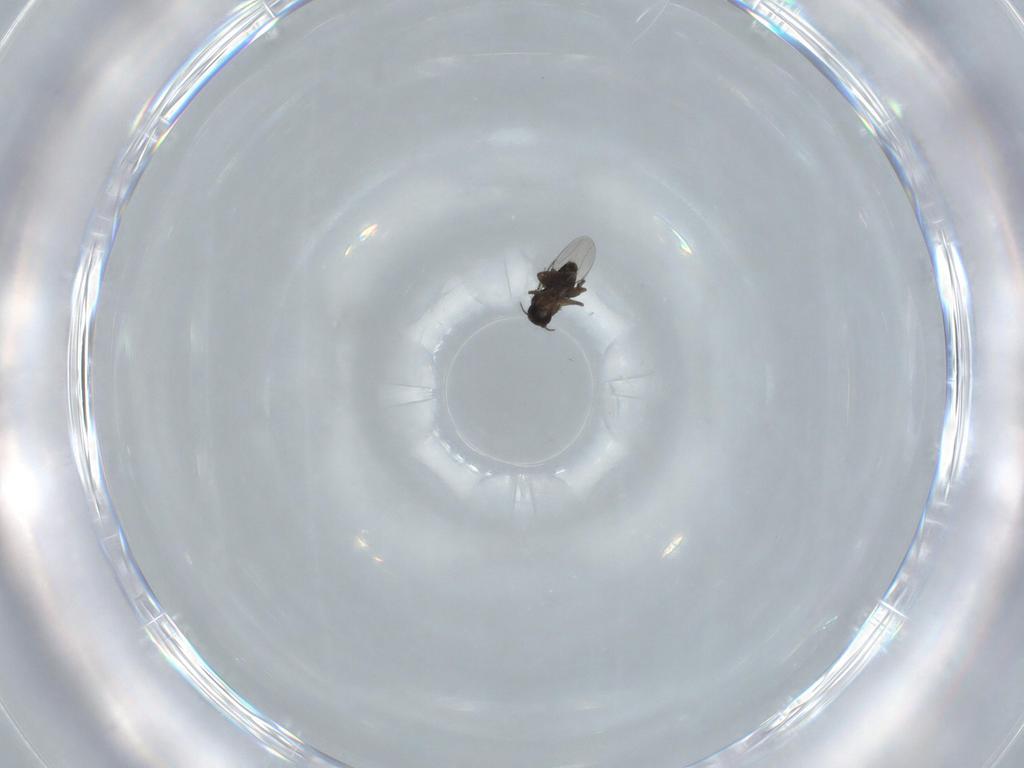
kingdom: Animalia
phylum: Arthropoda
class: Insecta
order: Diptera
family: Phoridae
